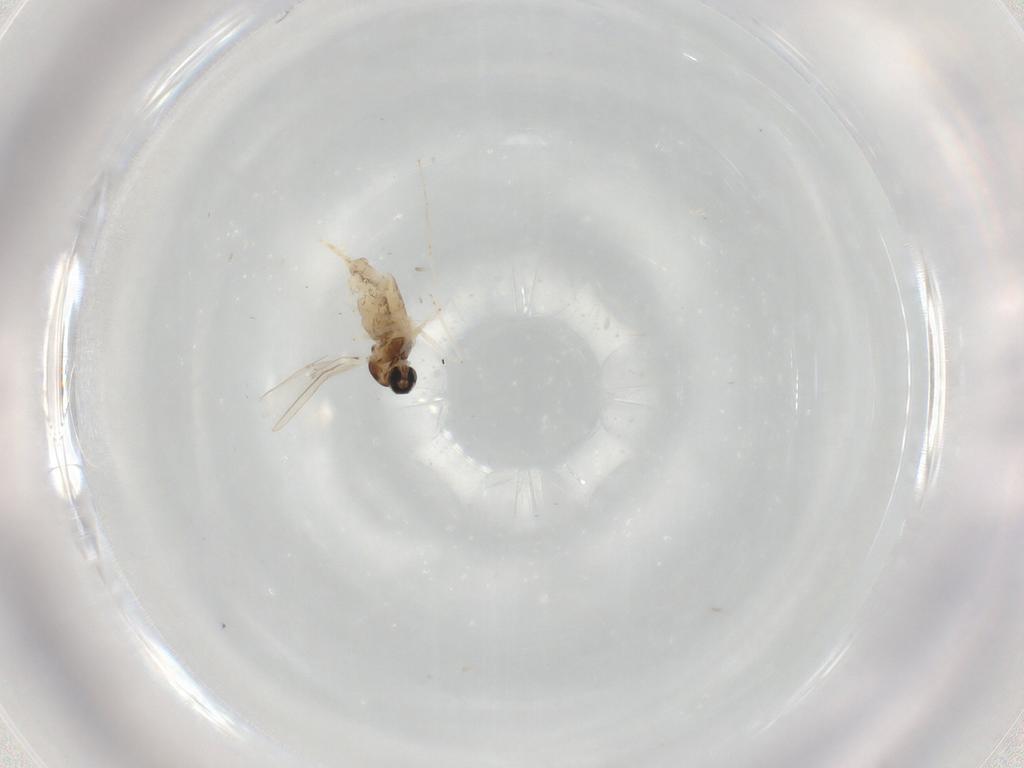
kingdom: Animalia
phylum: Arthropoda
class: Insecta
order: Diptera
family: Cecidomyiidae
